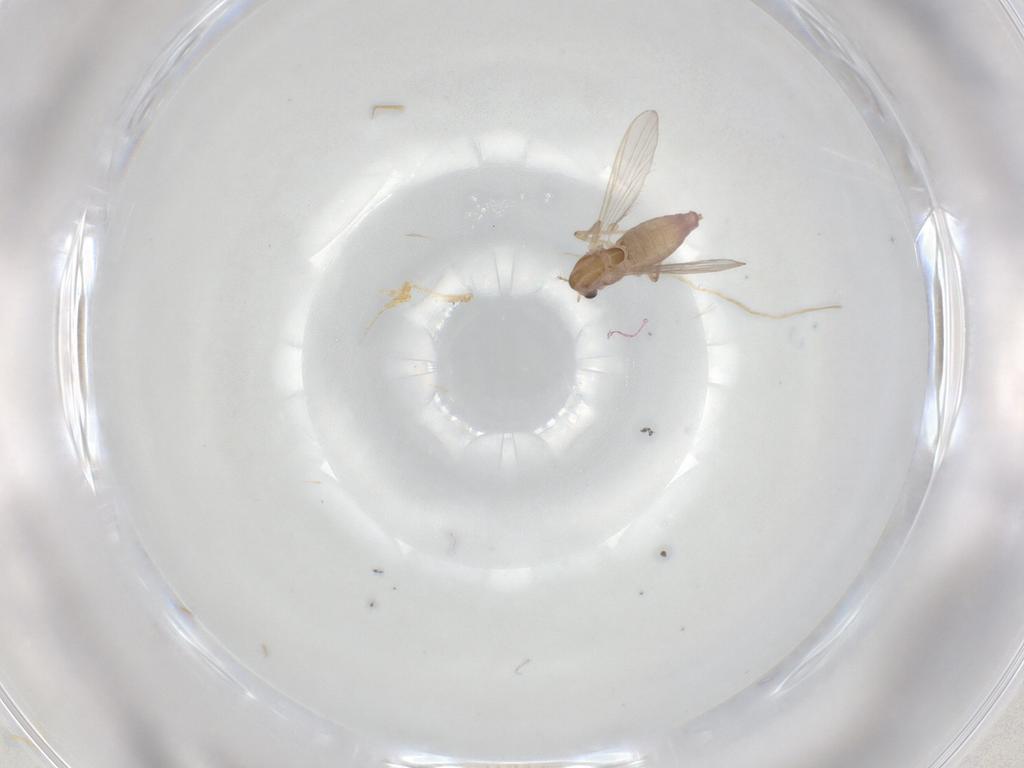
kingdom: Animalia
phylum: Arthropoda
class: Insecta
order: Diptera
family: Chironomidae
